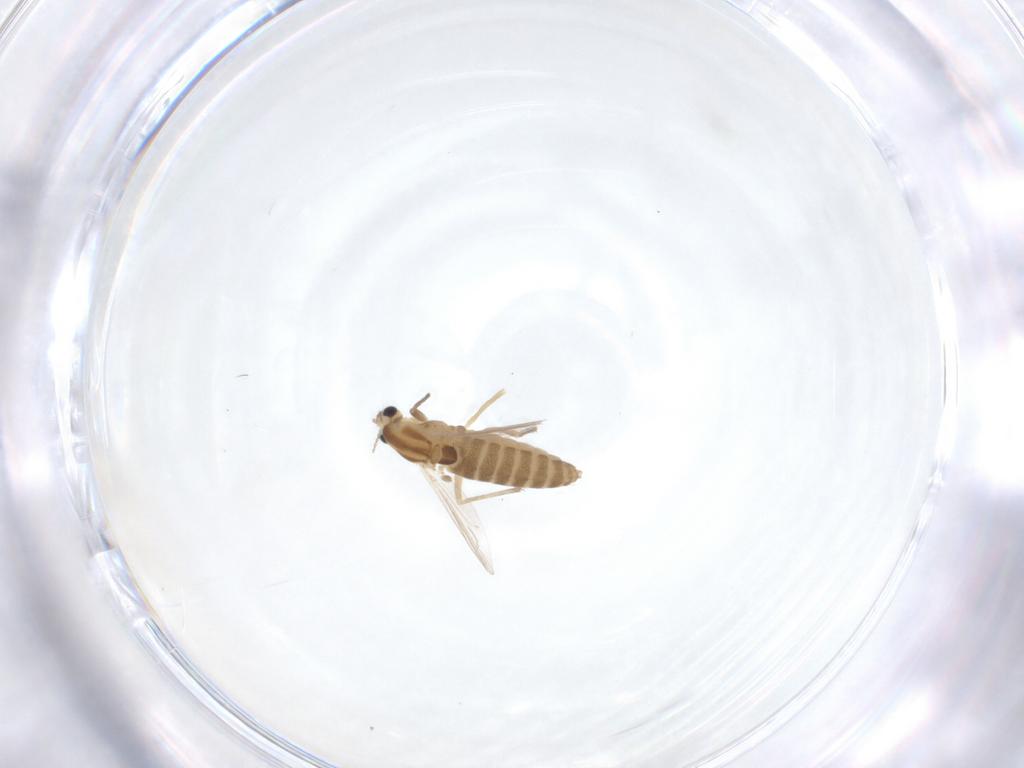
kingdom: Animalia
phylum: Arthropoda
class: Insecta
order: Diptera
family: Chironomidae
